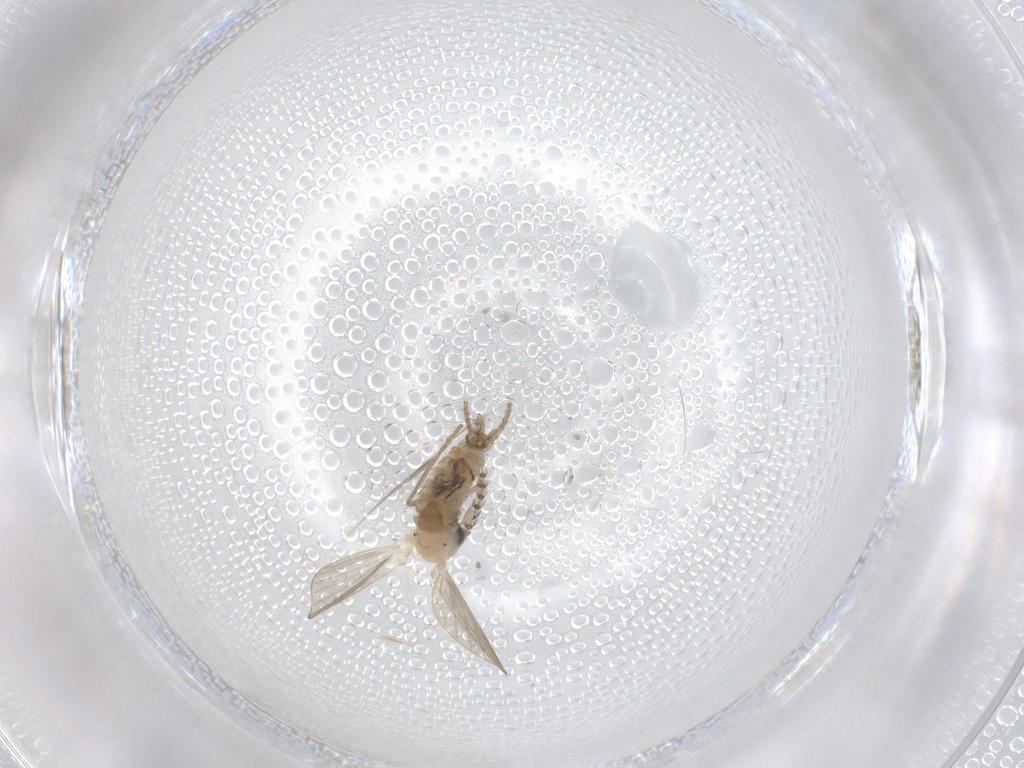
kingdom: Animalia
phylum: Arthropoda
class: Insecta
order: Diptera
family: Psychodidae
